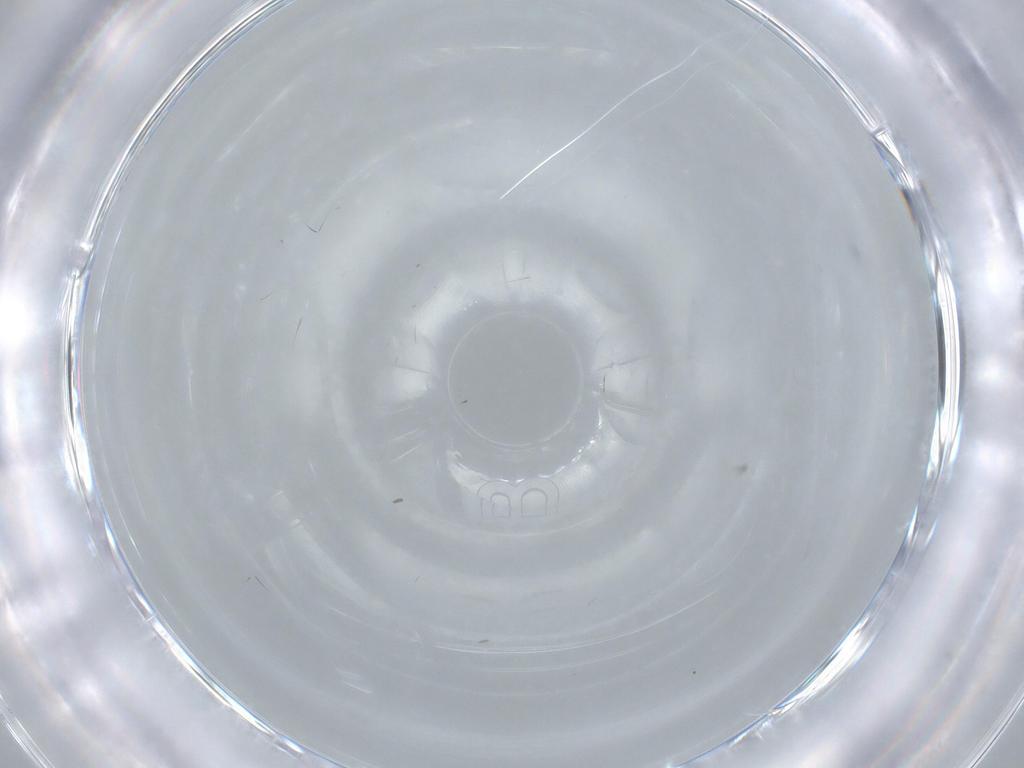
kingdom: Animalia
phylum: Arthropoda
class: Insecta
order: Diptera
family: Cecidomyiidae
